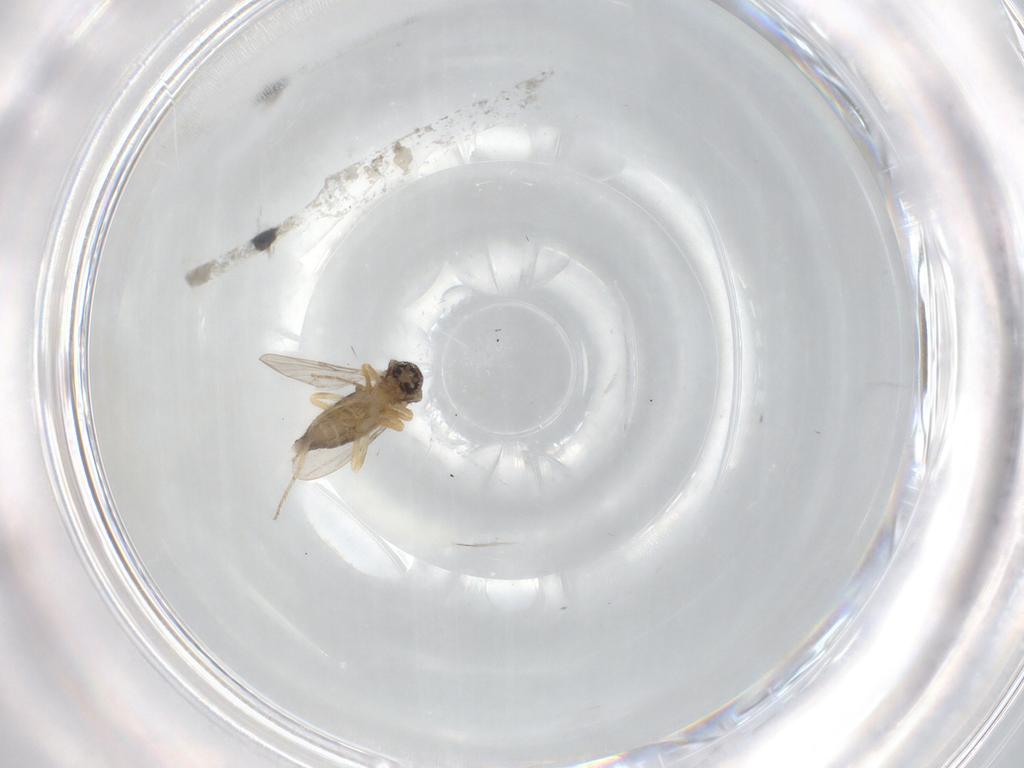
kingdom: Animalia
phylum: Arthropoda
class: Insecta
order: Diptera
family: Ceratopogonidae
